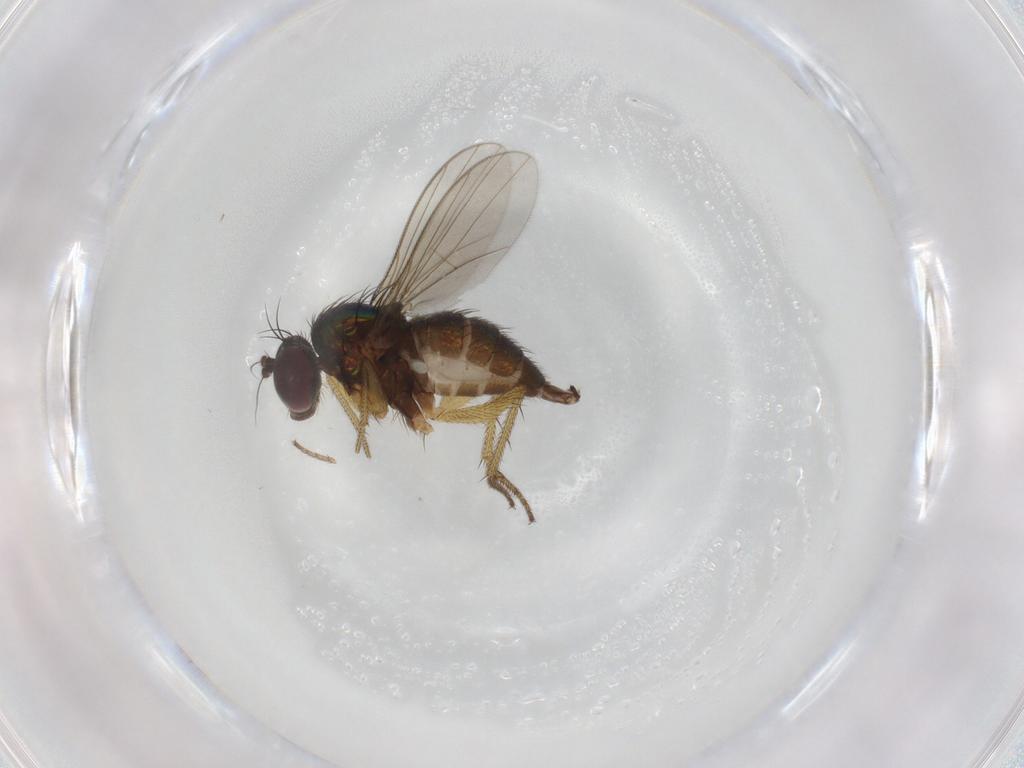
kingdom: Animalia
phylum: Arthropoda
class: Insecta
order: Diptera
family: Dolichopodidae
